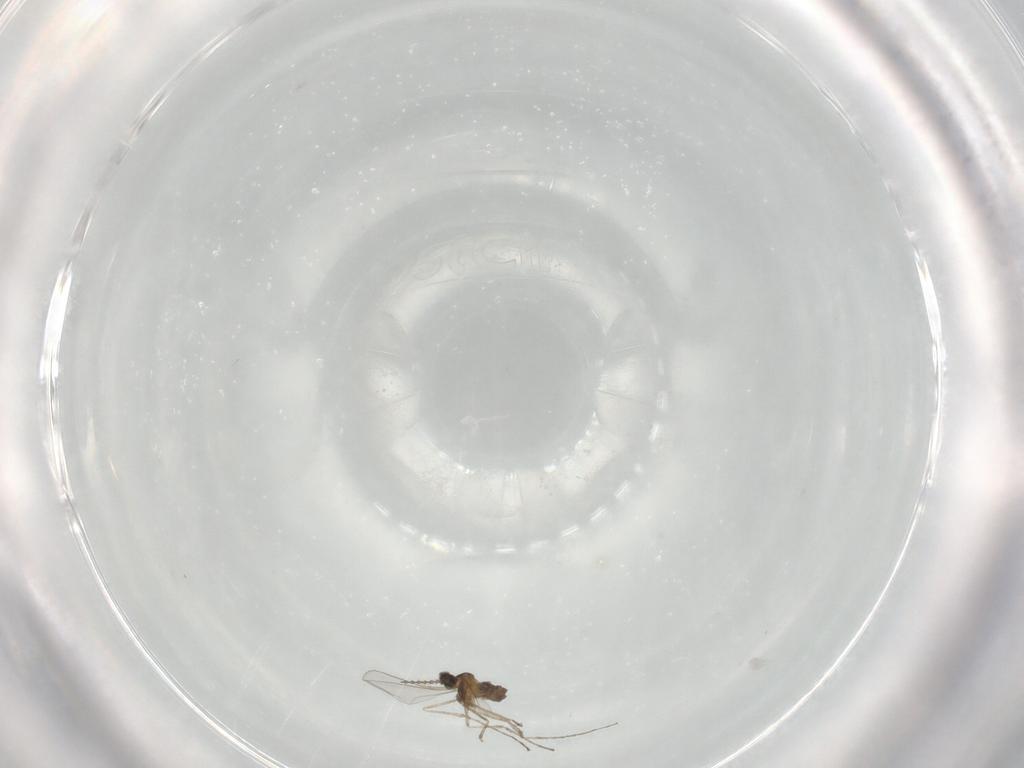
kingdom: Animalia
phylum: Arthropoda
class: Insecta
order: Diptera
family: Cecidomyiidae
